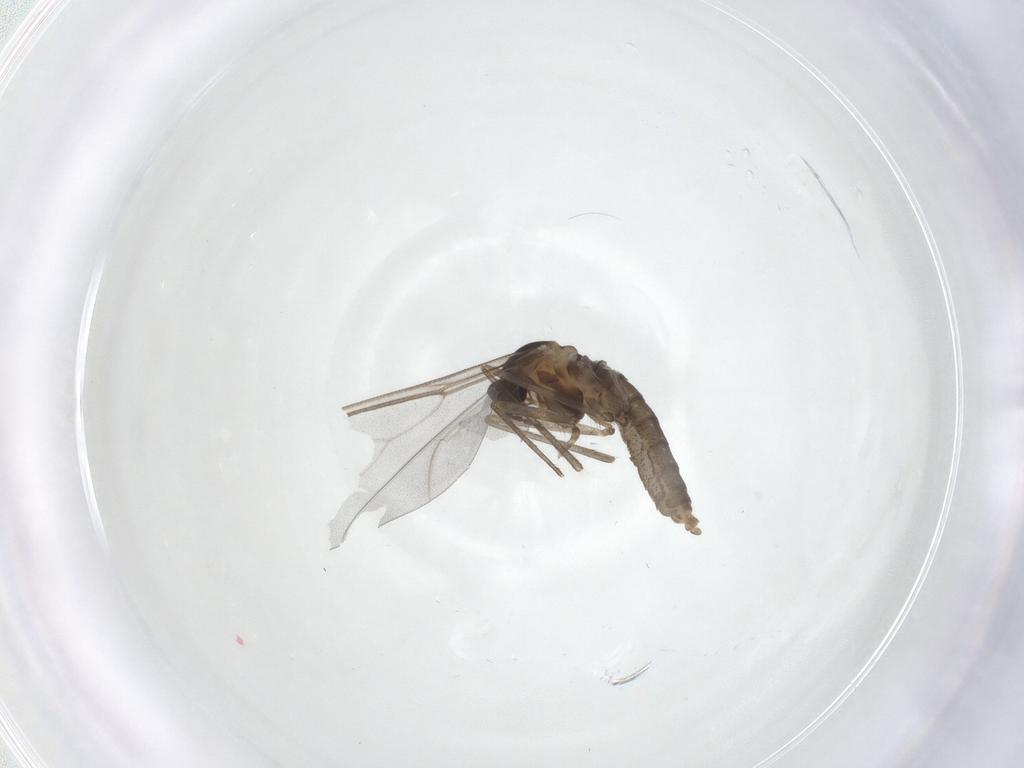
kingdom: Animalia
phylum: Arthropoda
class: Insecta
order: Diptera
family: Cecidomyiidae
